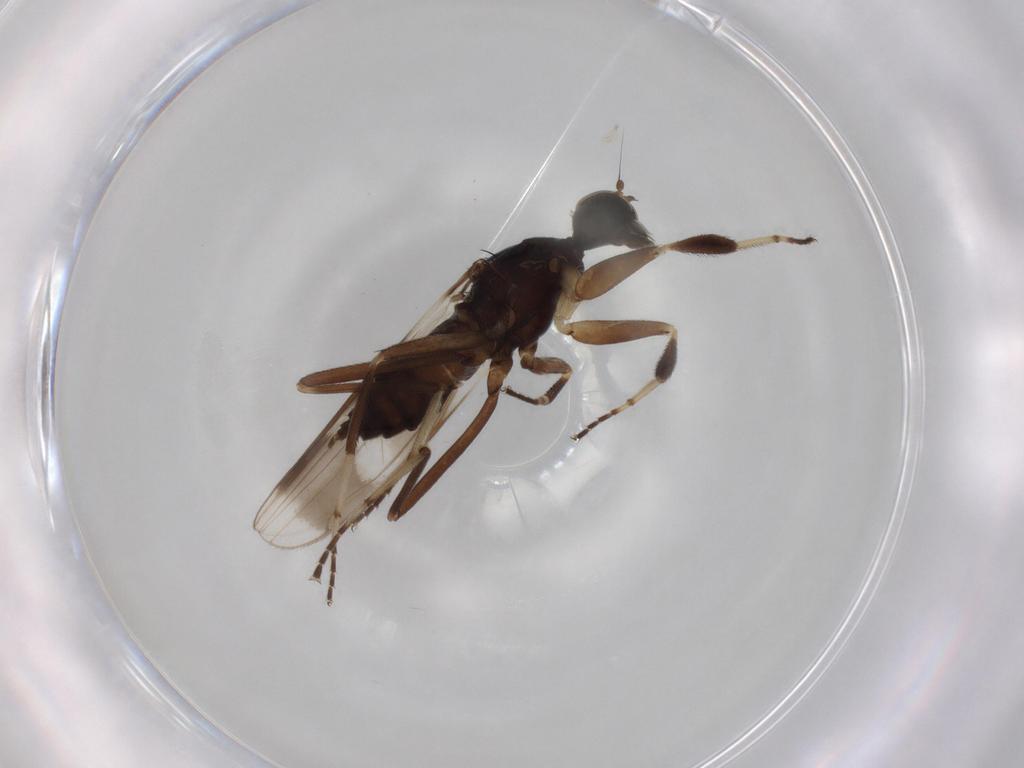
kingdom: Animalia
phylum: Arthropoda
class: Insecta
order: Diptera
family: Hybotidae
